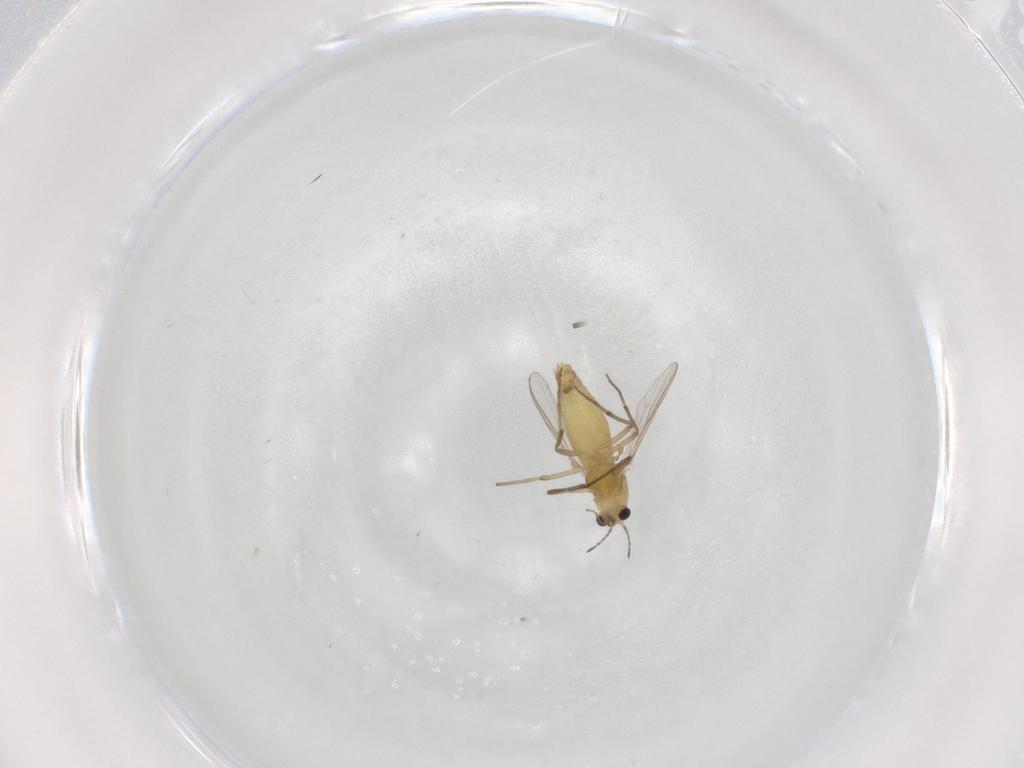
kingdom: Animalia
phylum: Arthropoda
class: Insecta
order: Diptera
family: Chironomidae
